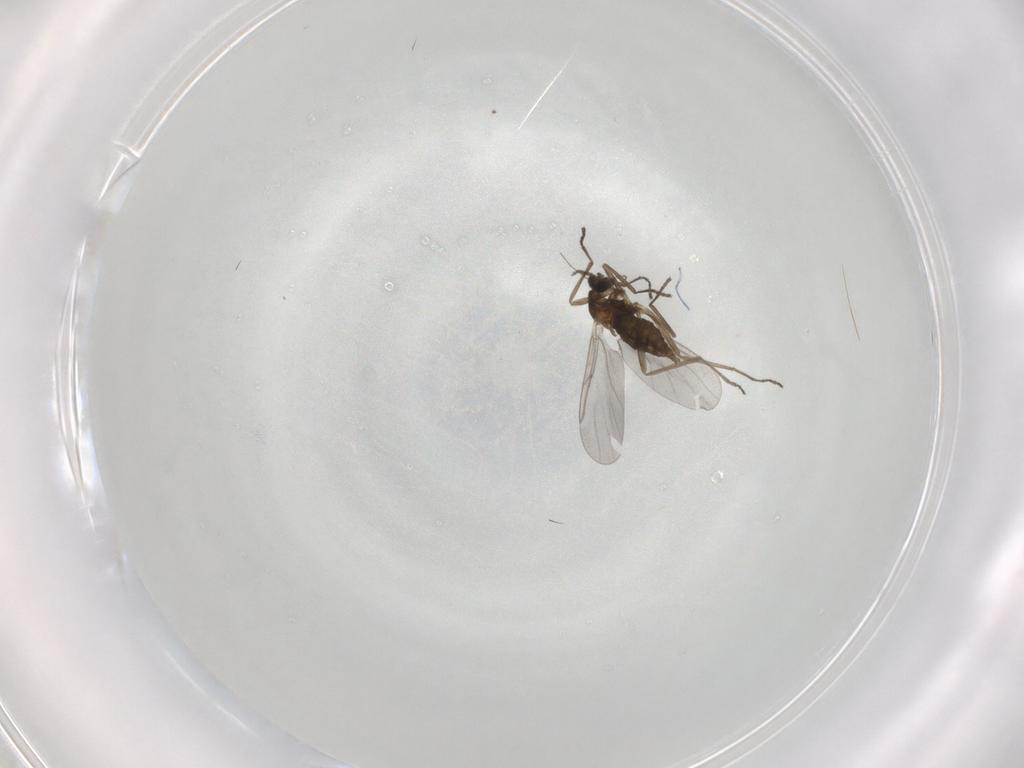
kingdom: Animalia
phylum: Arthropoda
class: Insecta
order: Diptera
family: Cecidomyiidae
